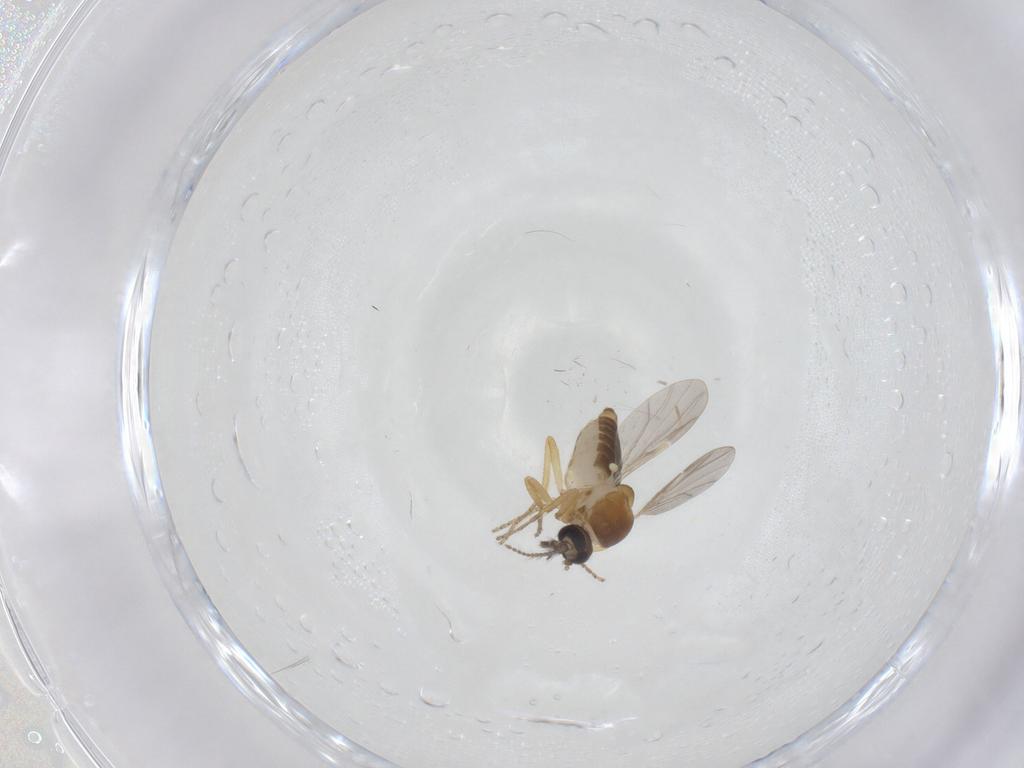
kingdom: Animalia
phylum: Arthropoda
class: Insecta
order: Diptera
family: Ceratopogonidae
